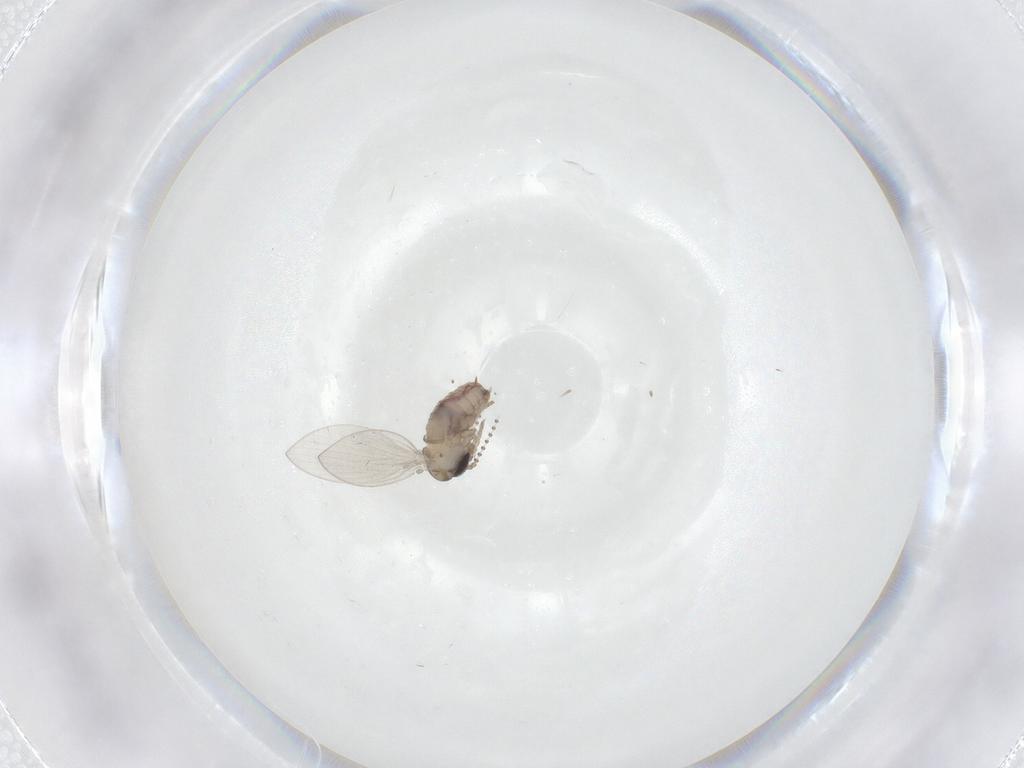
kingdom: Animalia
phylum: Arthropoda
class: Insecta
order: Diptera
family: Psychodidae
